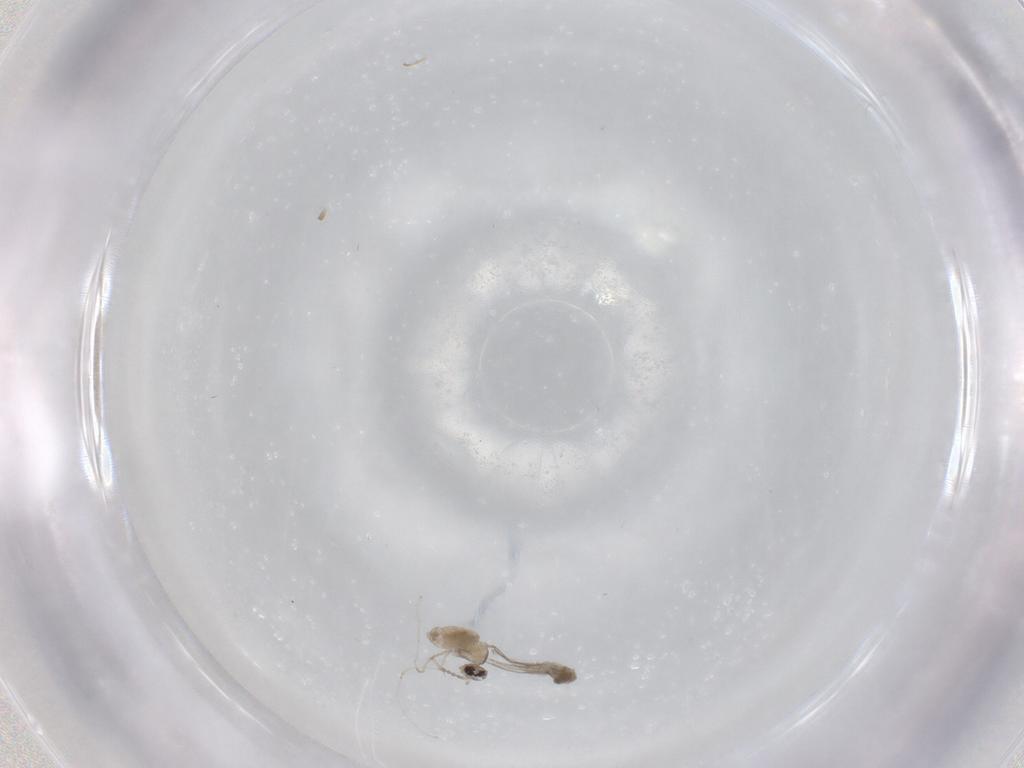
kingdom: Animalia
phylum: Arthropoda
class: Insecta
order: Diptera
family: Cecidomyiidae
